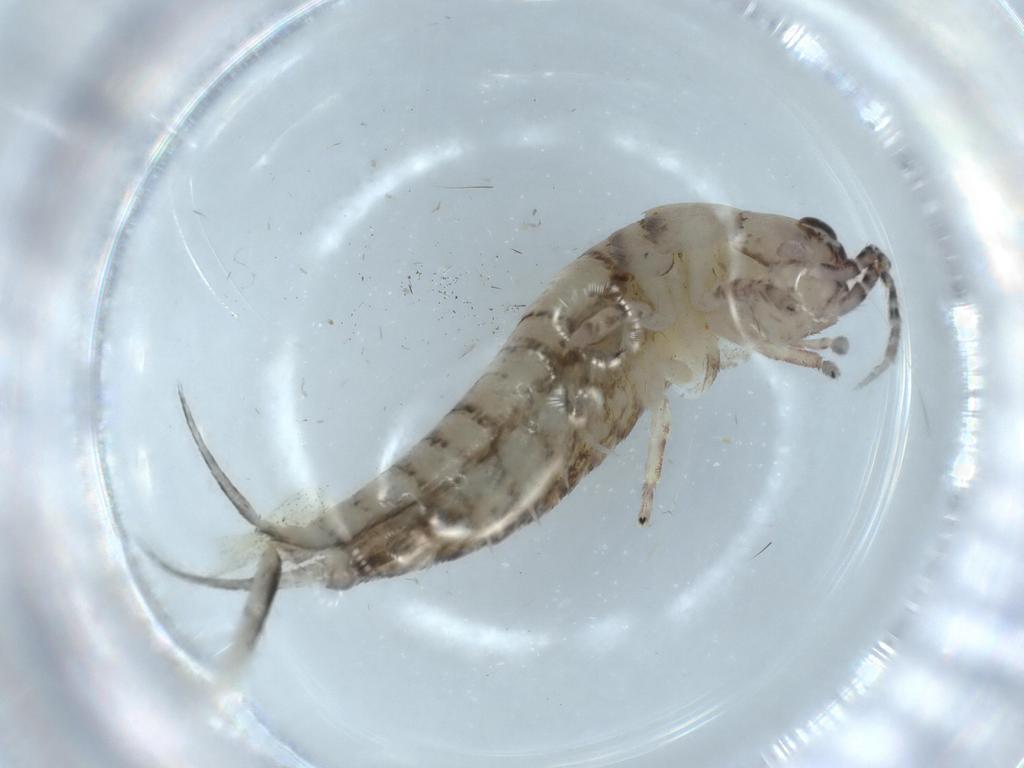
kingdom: Animalia
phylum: Arthropoda
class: Insecta
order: Archaeognatha
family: Machilidae
